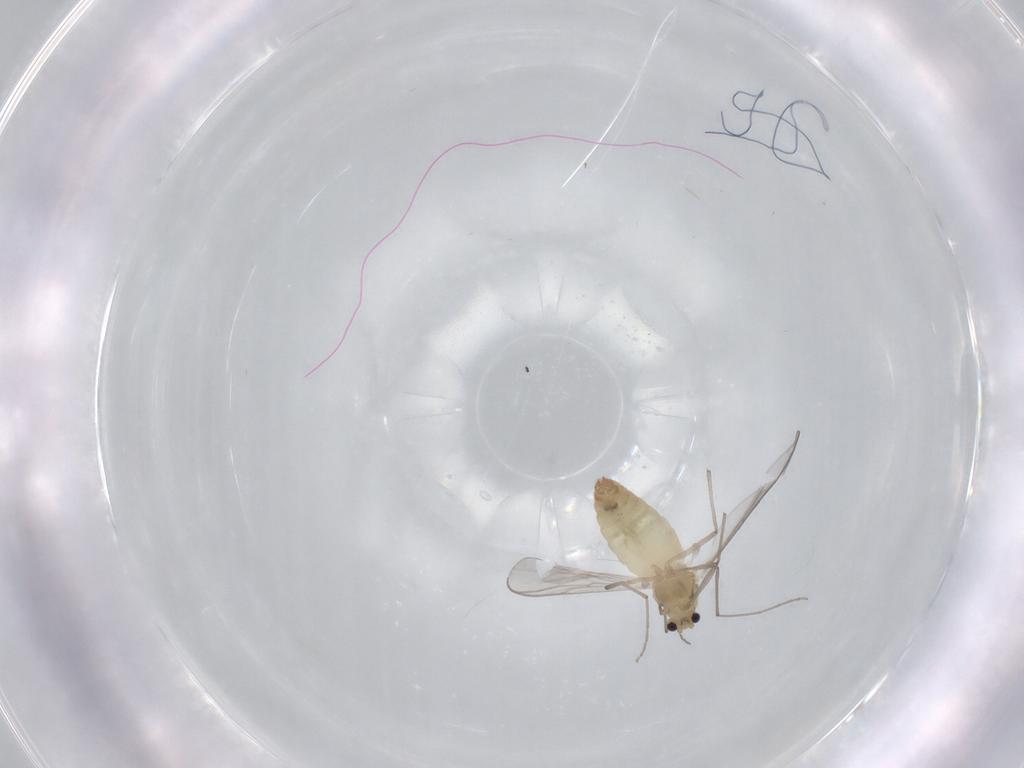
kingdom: Animalia
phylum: Arthropoda
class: Insecta
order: Diptera
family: Chironomidae
